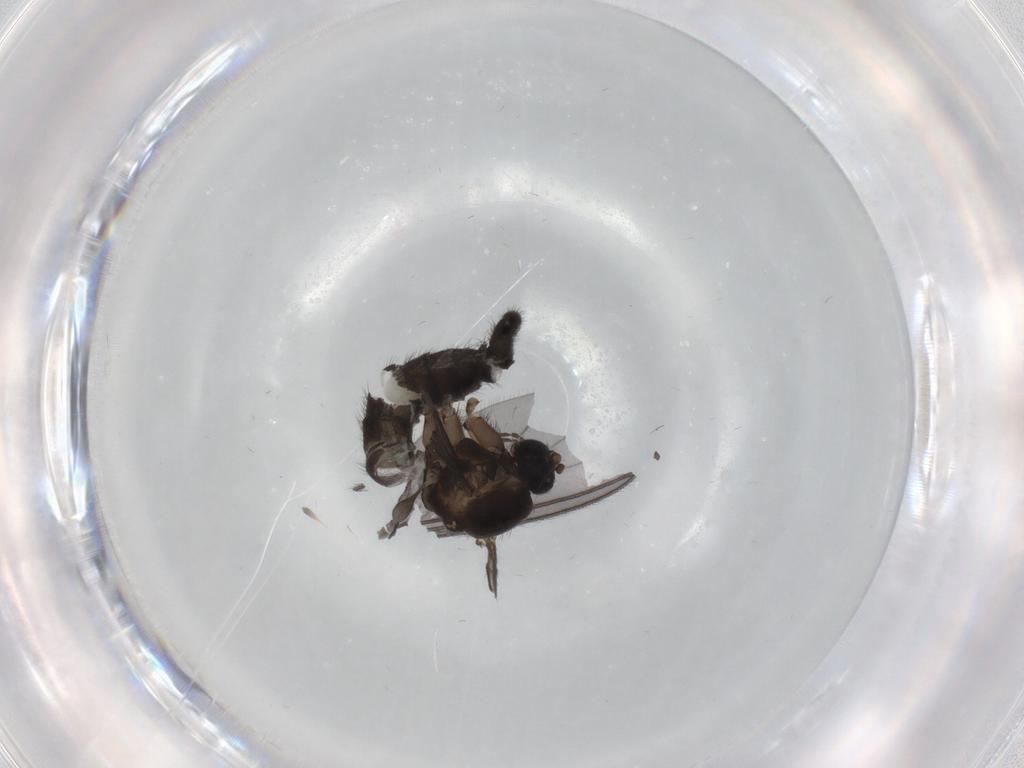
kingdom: Animalia
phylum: Arthropoda
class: Insecta
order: Diptera
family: Sciaridae
